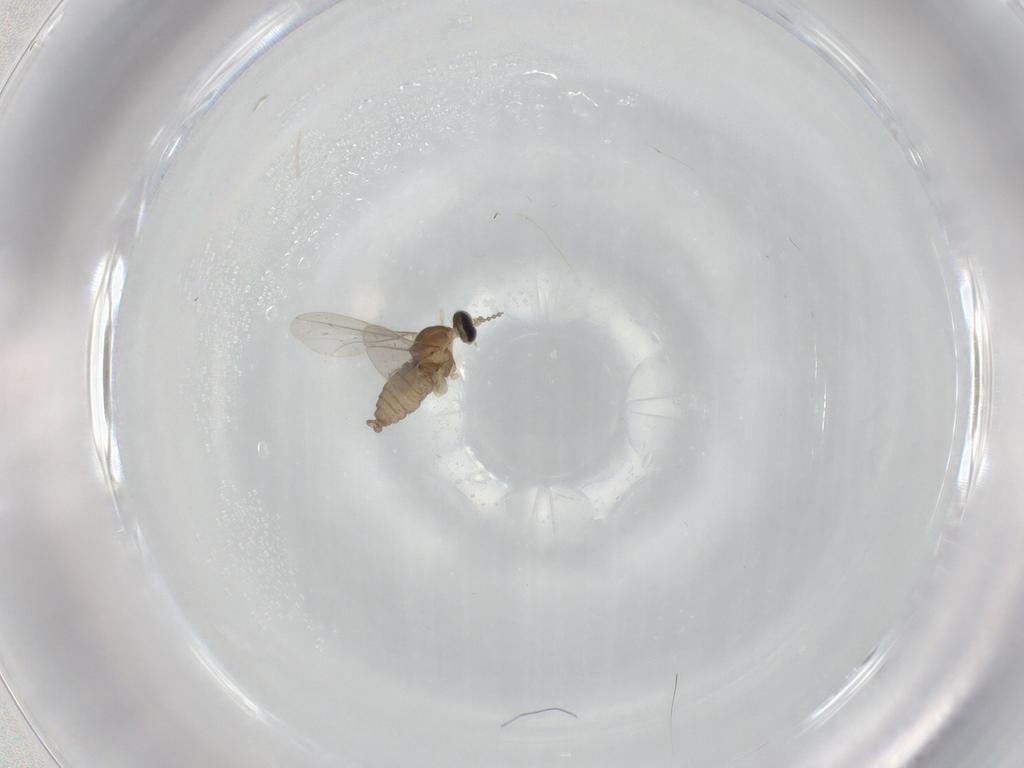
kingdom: Animalia
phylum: Arthropoda
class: Insecta
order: Diptera
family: Cecidomyiidae
